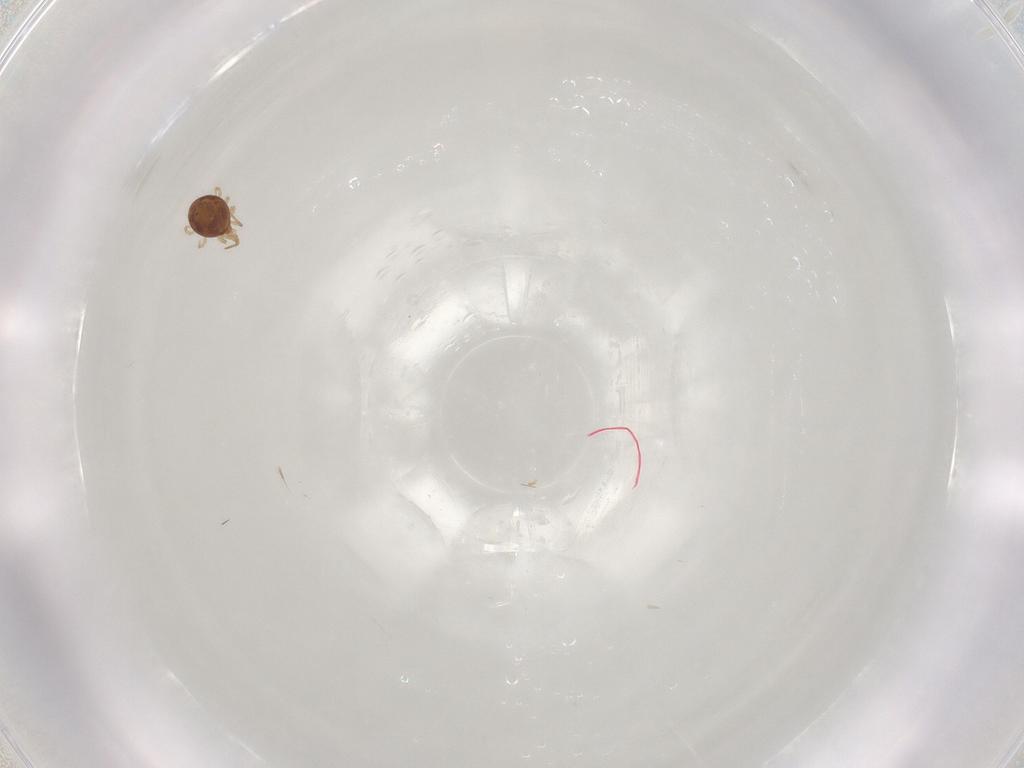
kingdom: Animalia
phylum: Arthropoda
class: Arachnida
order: Mesostigmata
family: Phytoseiidae
